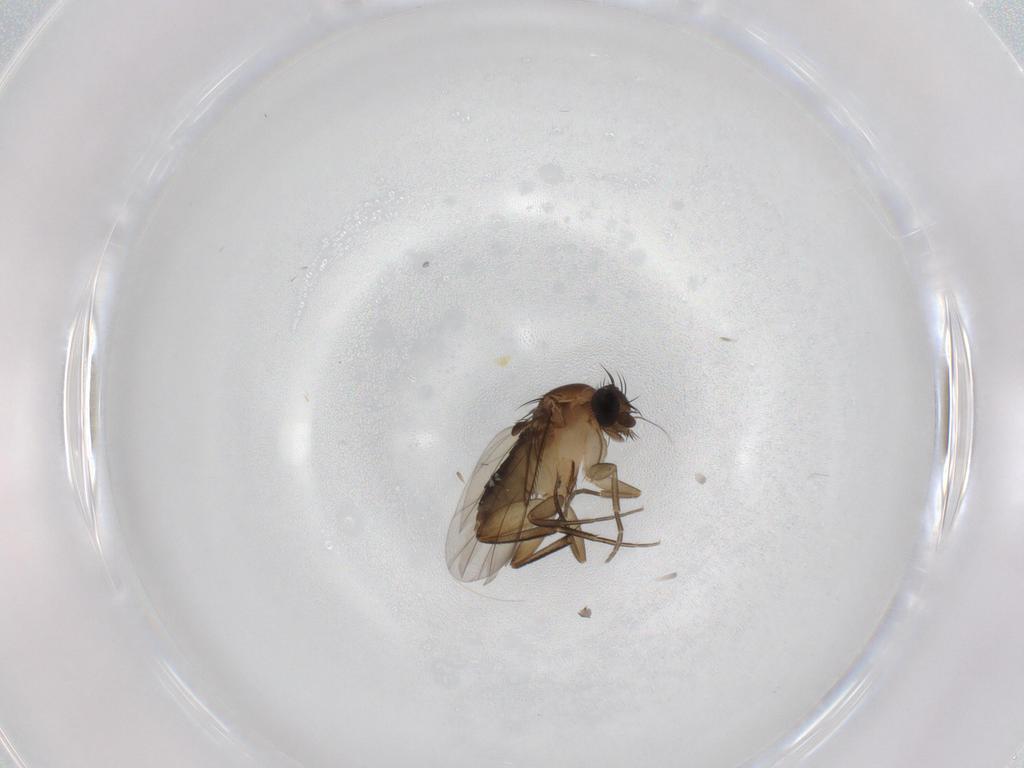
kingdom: Animalia
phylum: Arthropoda
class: Insecta
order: Diptera
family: Phoridae
